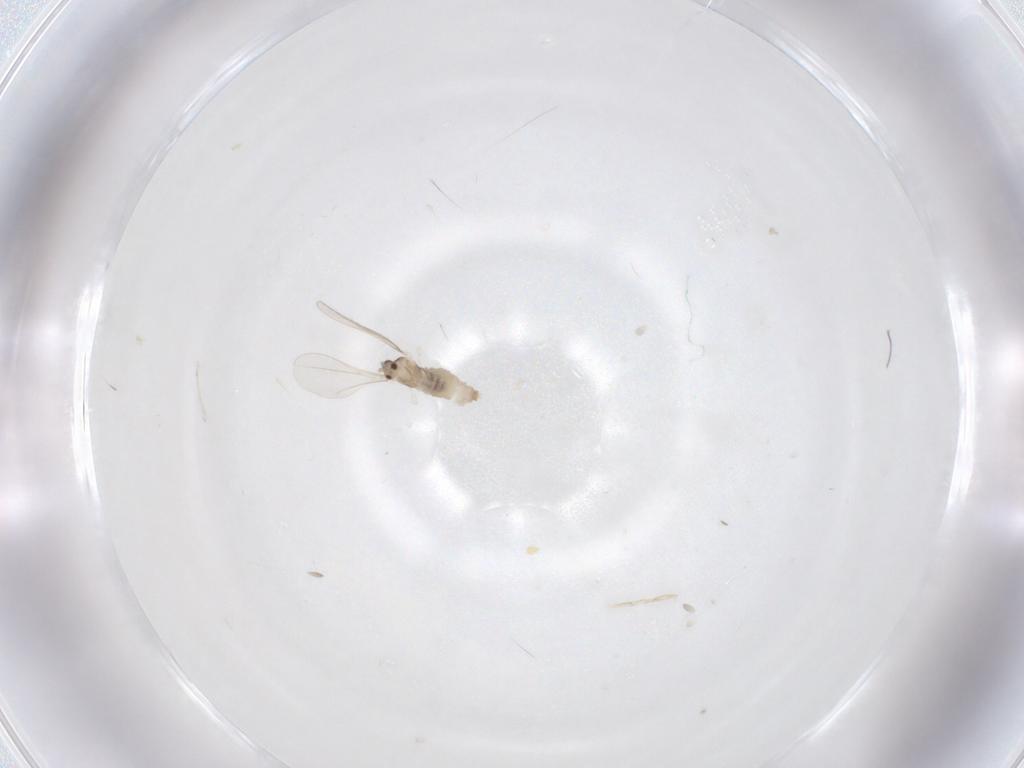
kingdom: Animalia
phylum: Arthropoda
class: Insecta
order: Diptera
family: Cecidomyiidae
